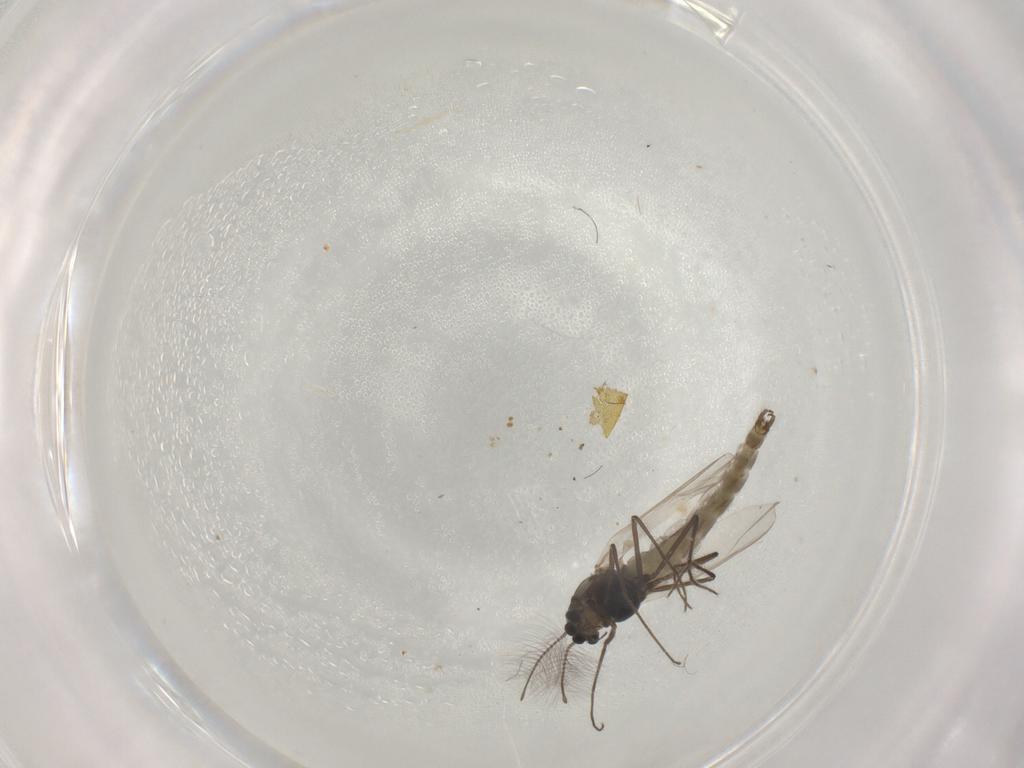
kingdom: Animalia
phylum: Arthropoda
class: Insecta
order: Diptera
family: Chironomidae
